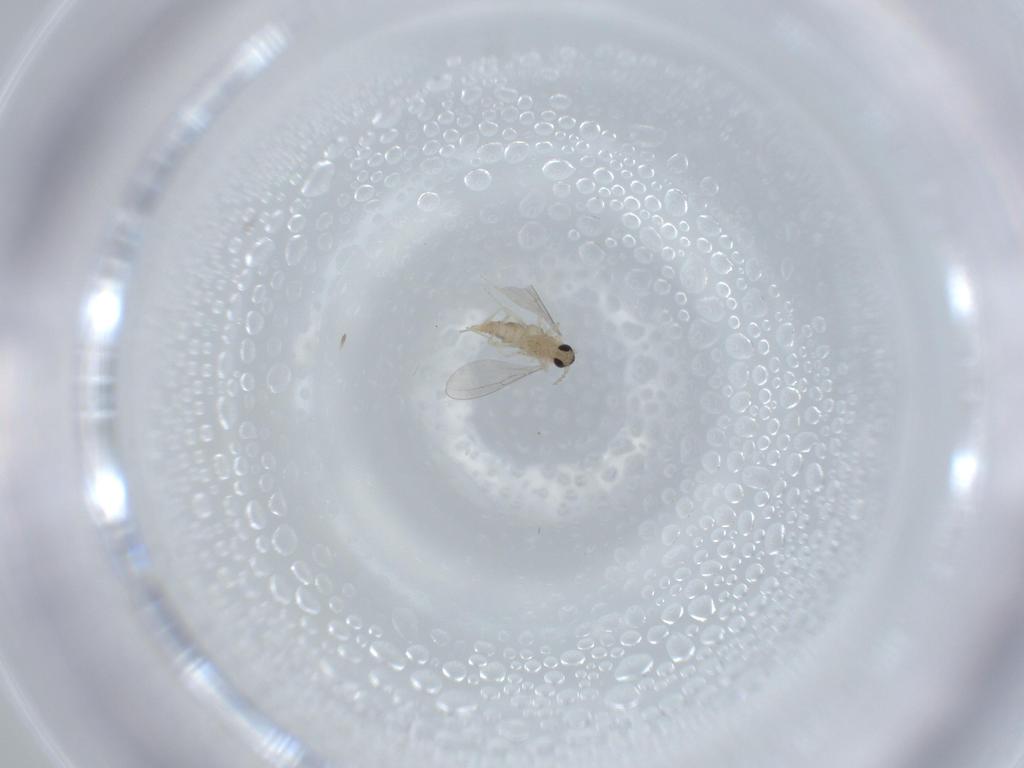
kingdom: Animalia
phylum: Arthropoda
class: Insecta
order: Diptera
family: Cecidomyiidae
